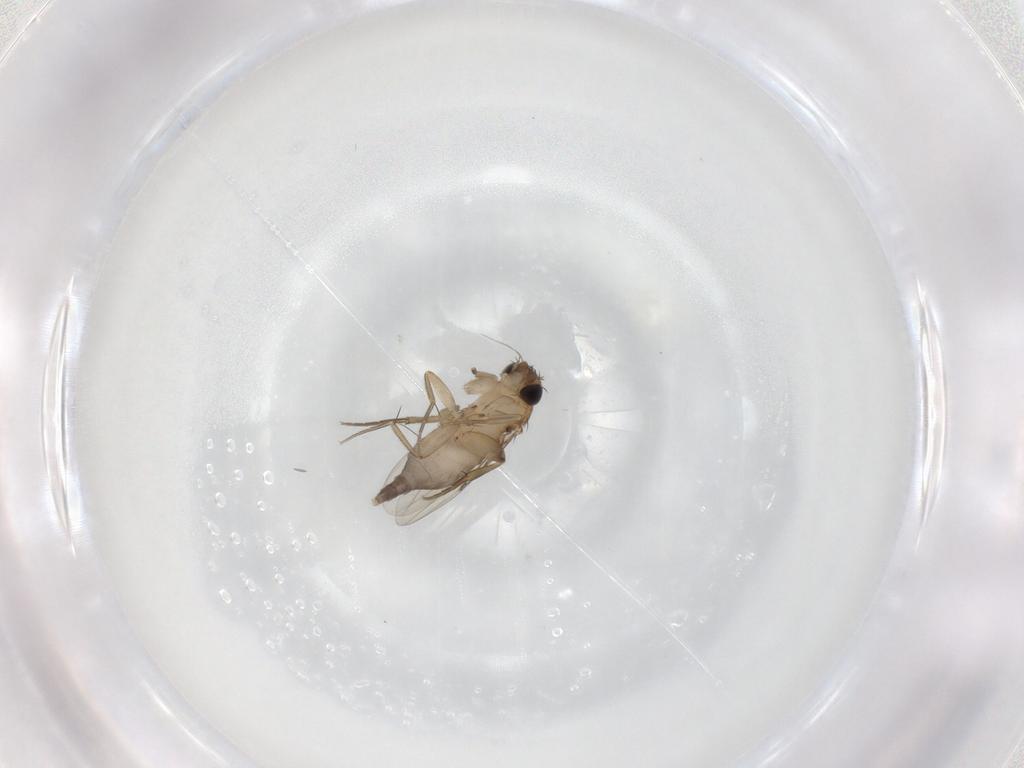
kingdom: Animalia
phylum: Arthropoda
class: Insecta
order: Diptera
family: Phoridae
